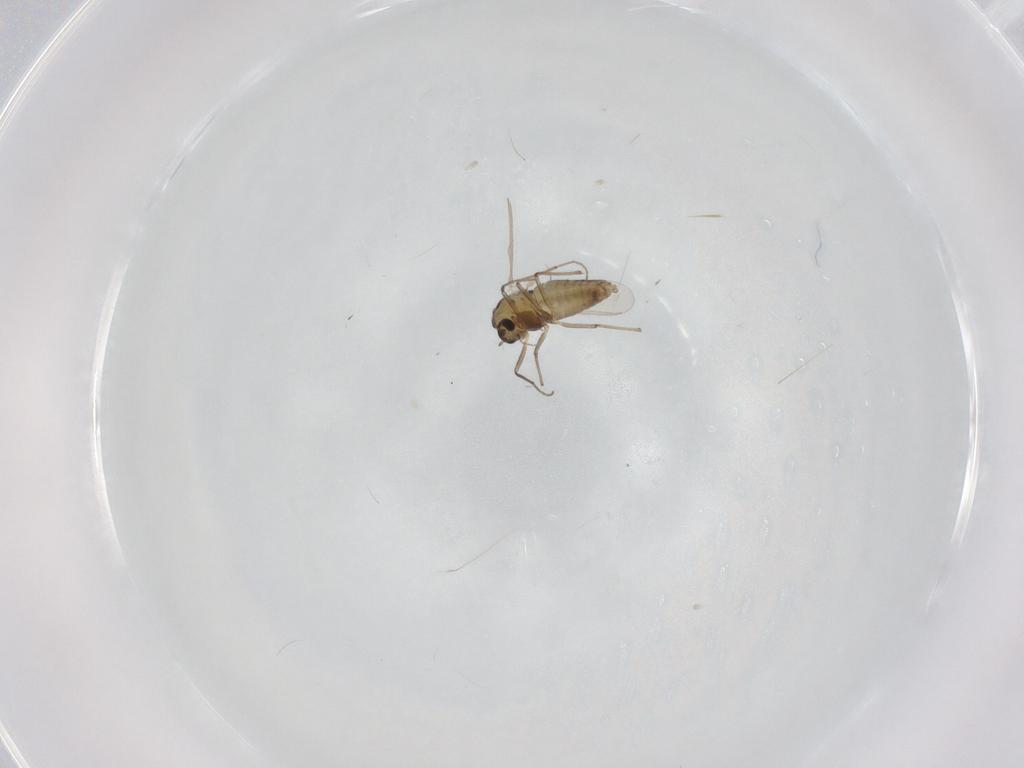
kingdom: Animalia
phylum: Arthropoda
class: Insecta
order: Diptera
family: Chironomidae
